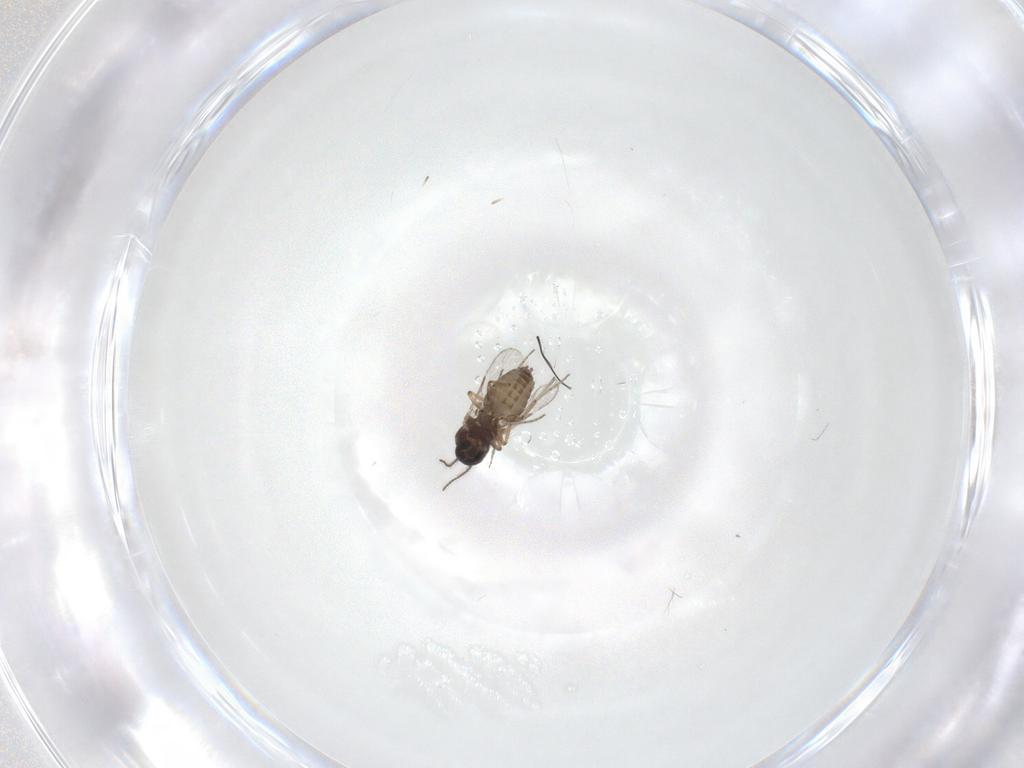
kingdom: Animalia
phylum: Arthropoda
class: Insecta
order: Diptera
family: Ceratopogonidae
